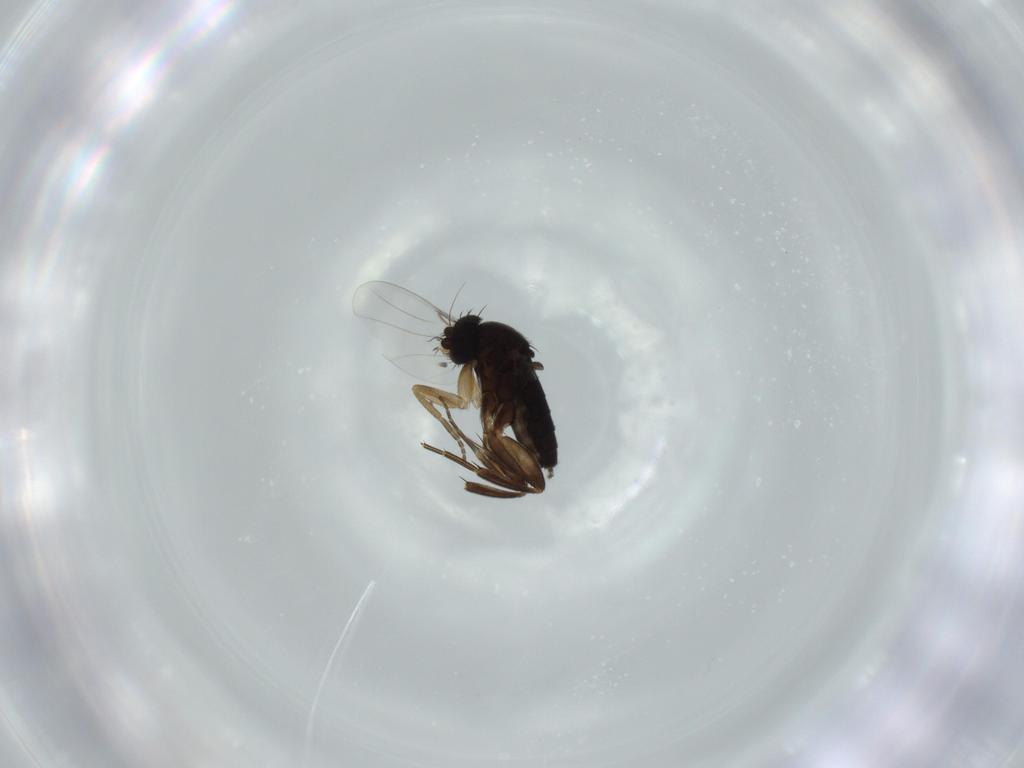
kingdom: Animalia
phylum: Arthropoda
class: Insecta
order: Diptera
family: Phoridae
